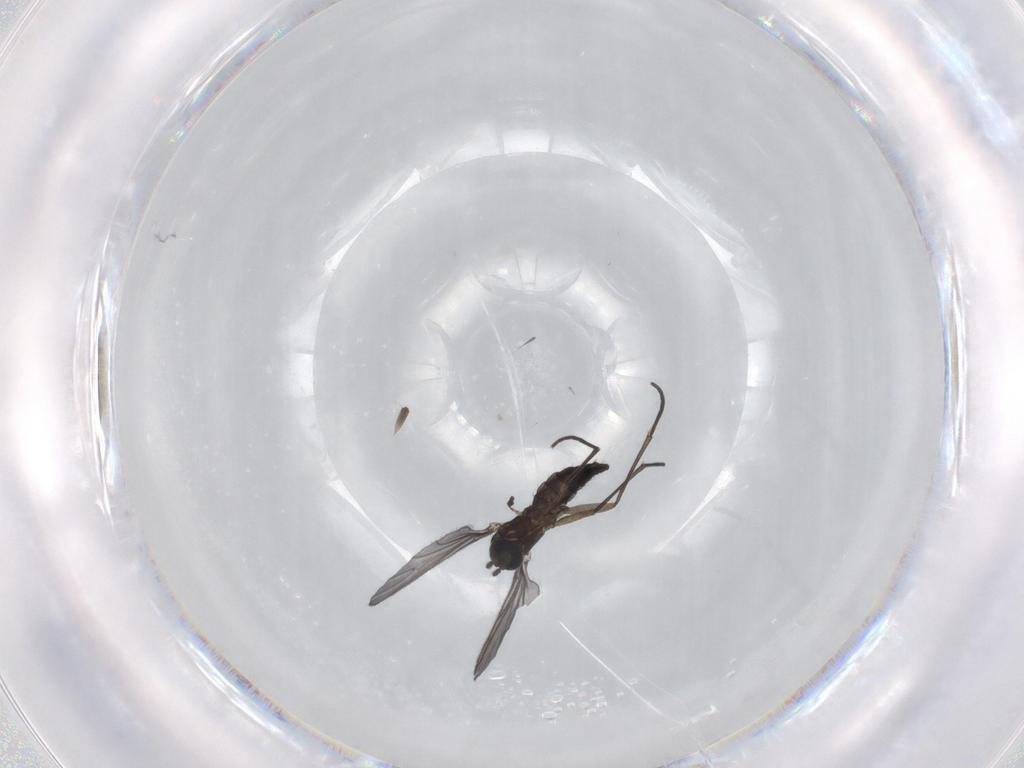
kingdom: Animalia
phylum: Arthropoda
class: Insecta
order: Diptera
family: Sciaridae
